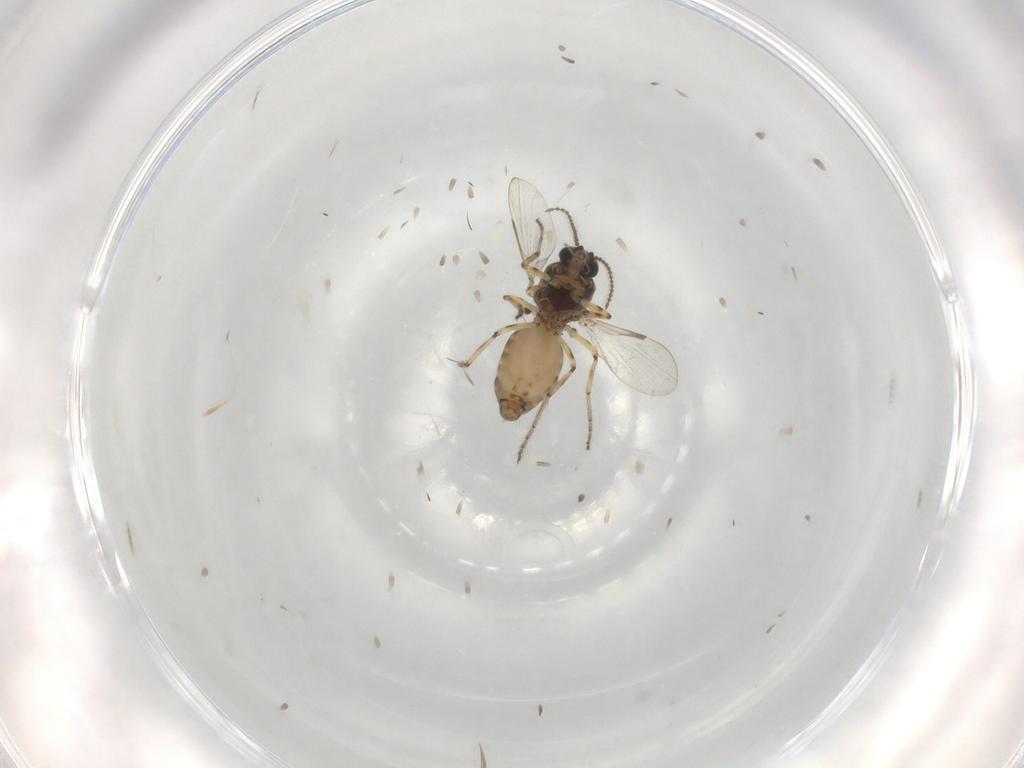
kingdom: Animalia
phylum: Arthropoda
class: Insecta
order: Diptera
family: Ceratopogonidae
